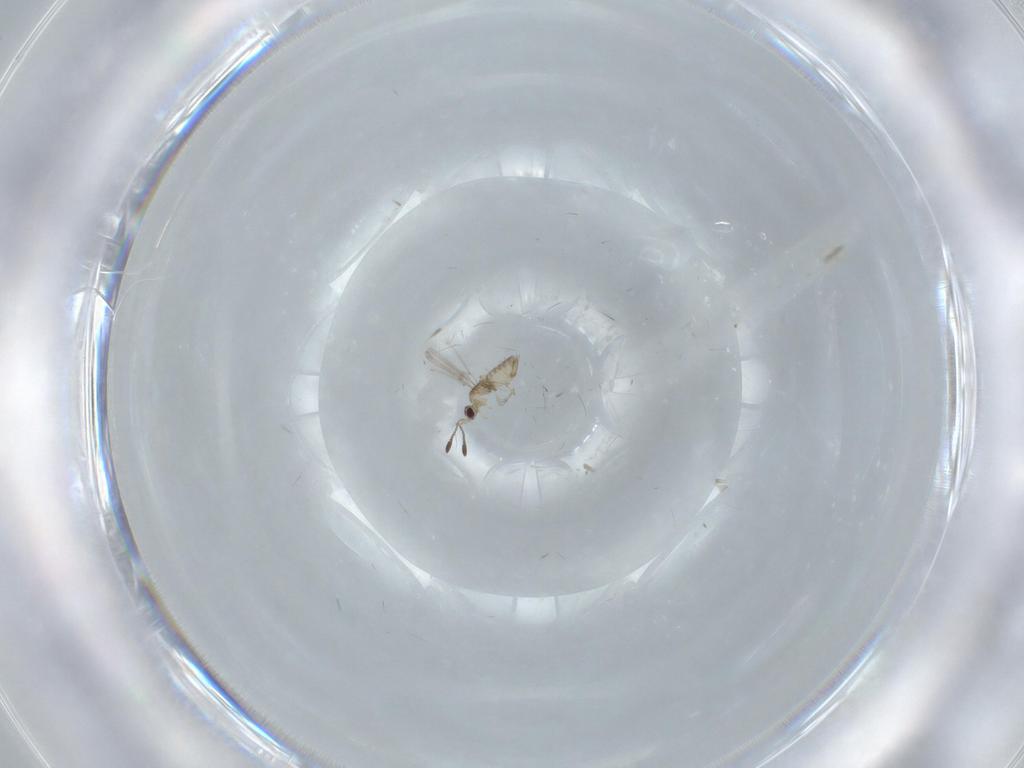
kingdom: Animalia
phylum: Arthropoda
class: Insecta
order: Hymenoptera
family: Mymaridae
